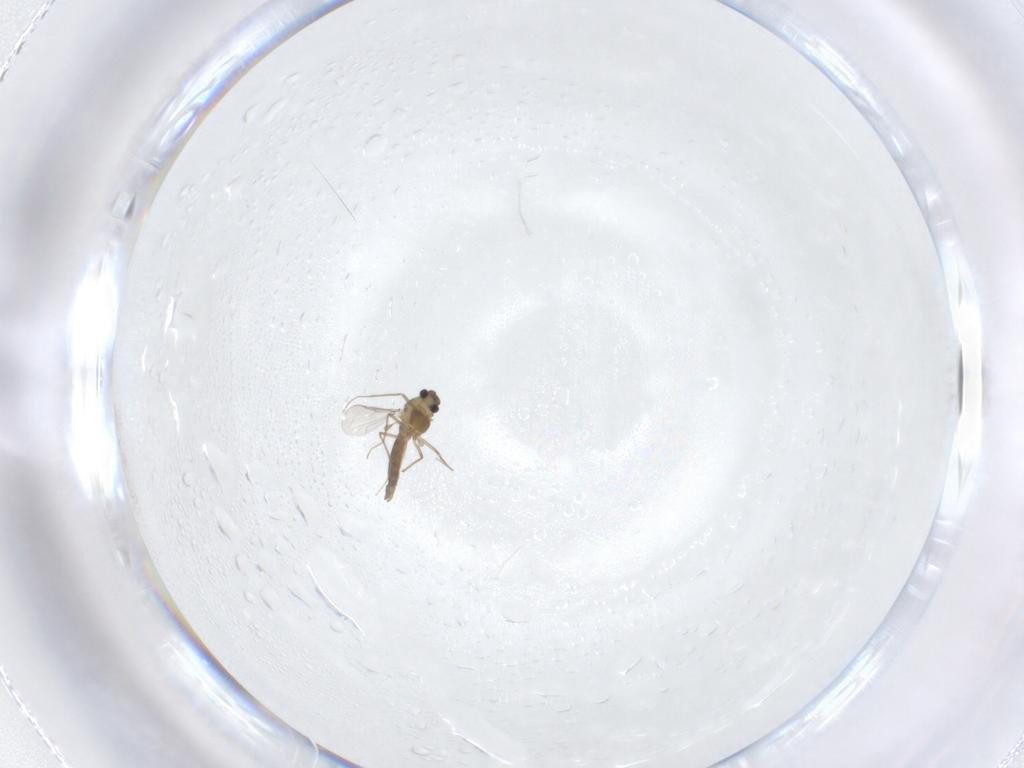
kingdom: Animalia
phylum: Arthropoda
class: Insecta
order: Diptera
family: Chironomidae
